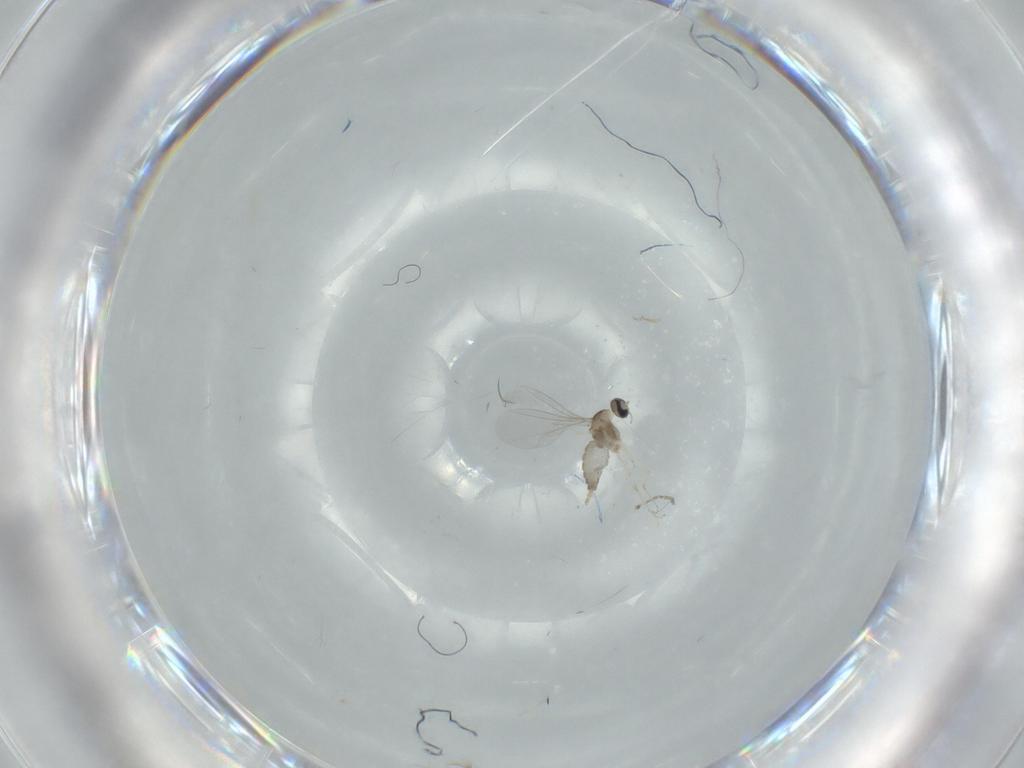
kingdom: Animalia
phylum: Arthropoda
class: Insecta
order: Diptera
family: Cecidomyiidae
